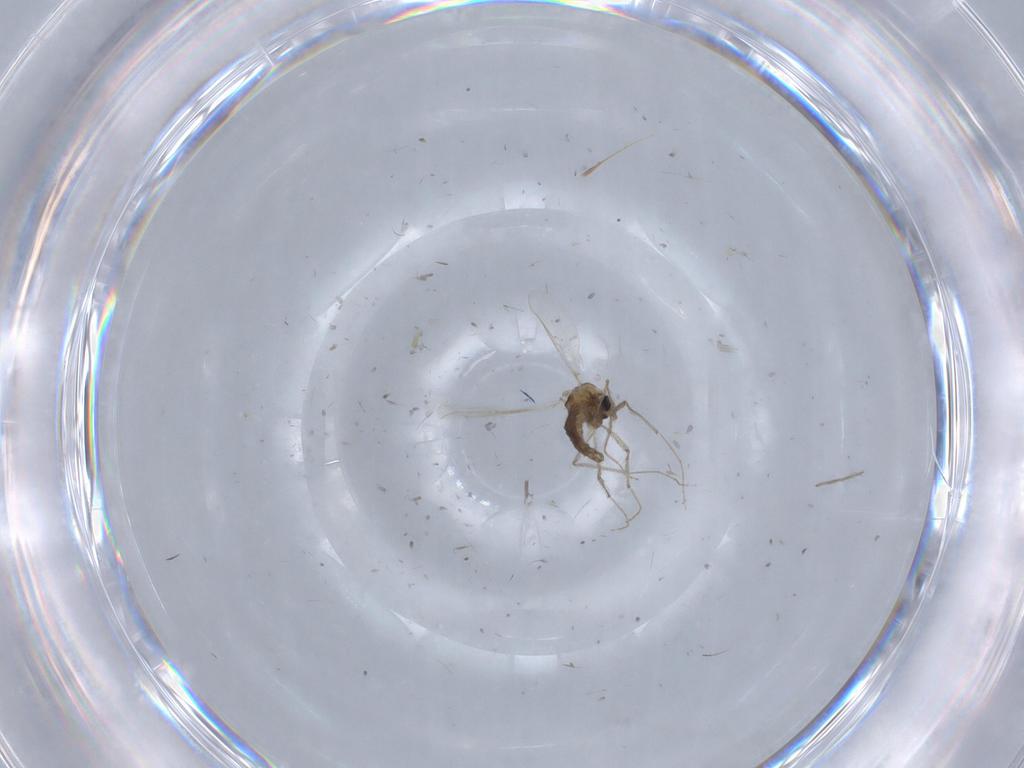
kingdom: Animalia
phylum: Arthropoda
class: Insecta
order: Diptera
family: Chironomidae
